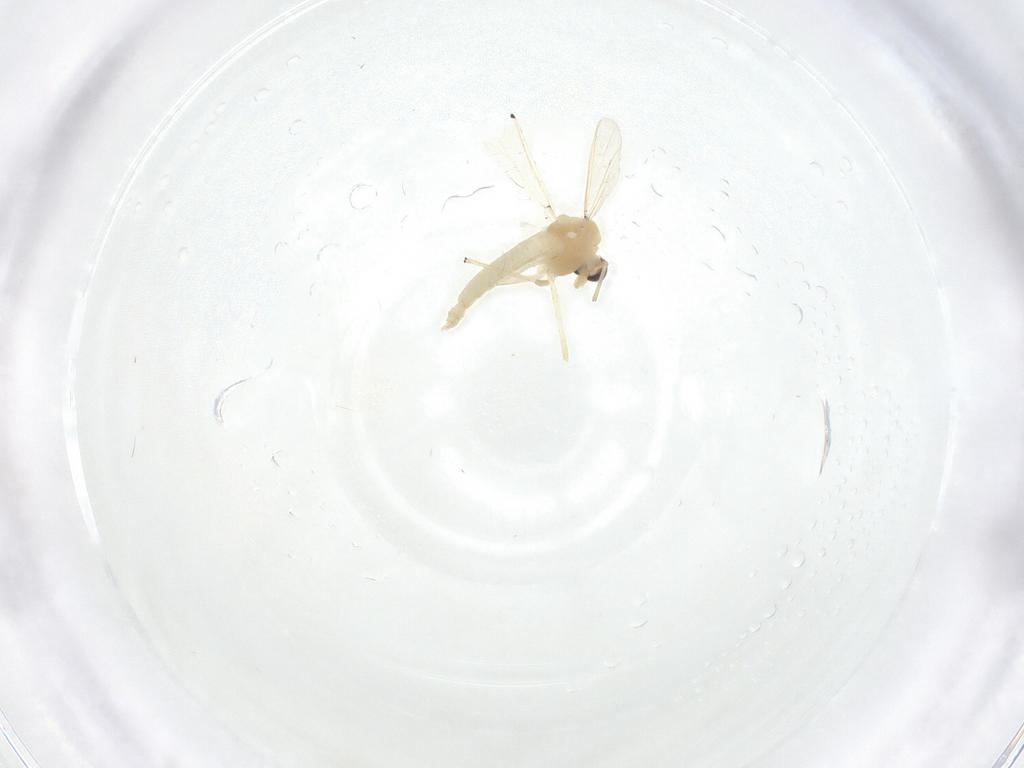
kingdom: Animalia
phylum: Arthropoda
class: Insecta
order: Diptera
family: Chironomidae
